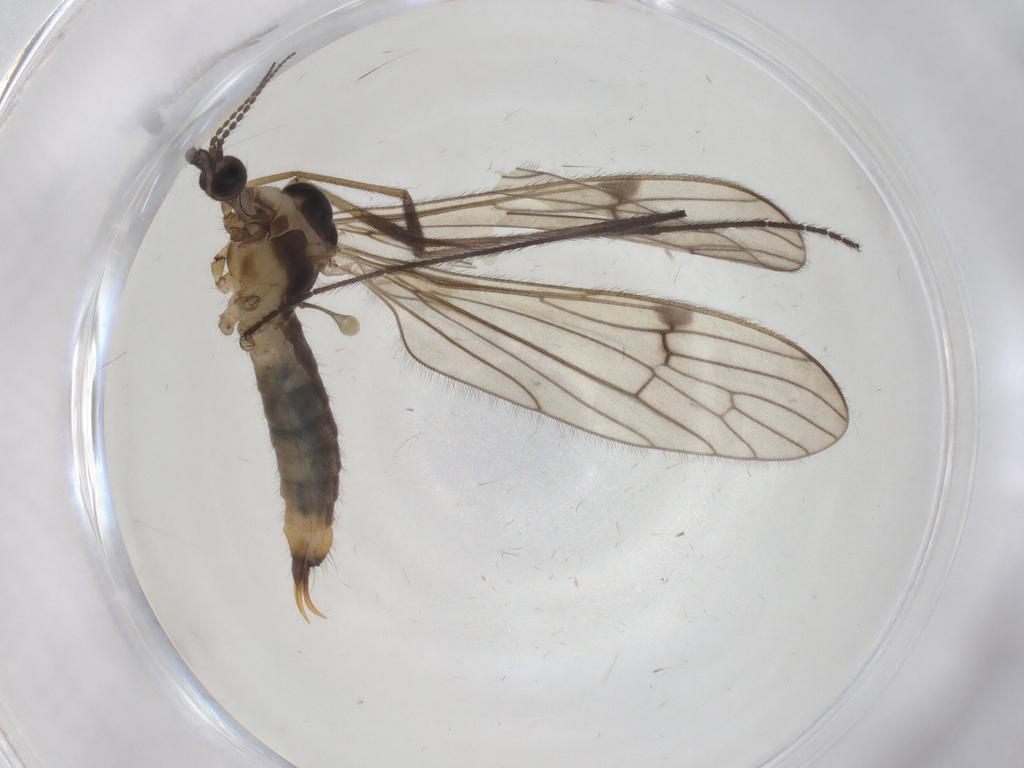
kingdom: Animalia
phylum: Arthropoda
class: Insecta
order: Diptera
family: Limoniidae
